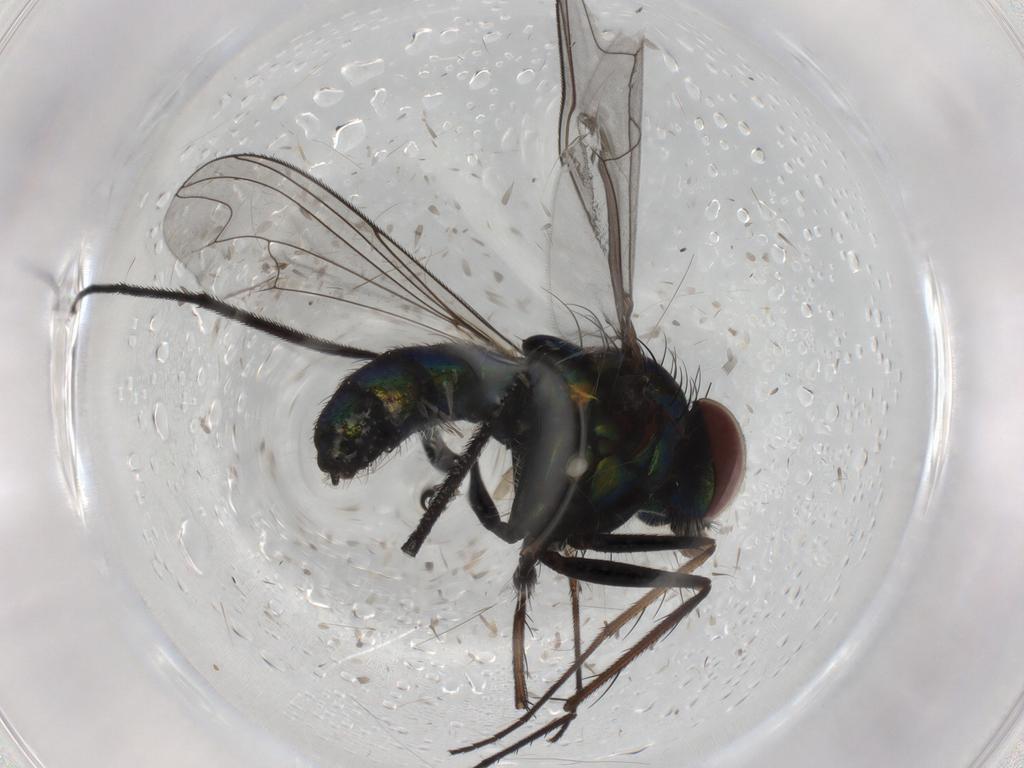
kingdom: Animalia
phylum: Arthropoda
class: Insecta
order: Diptera
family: Dolichopodidae
